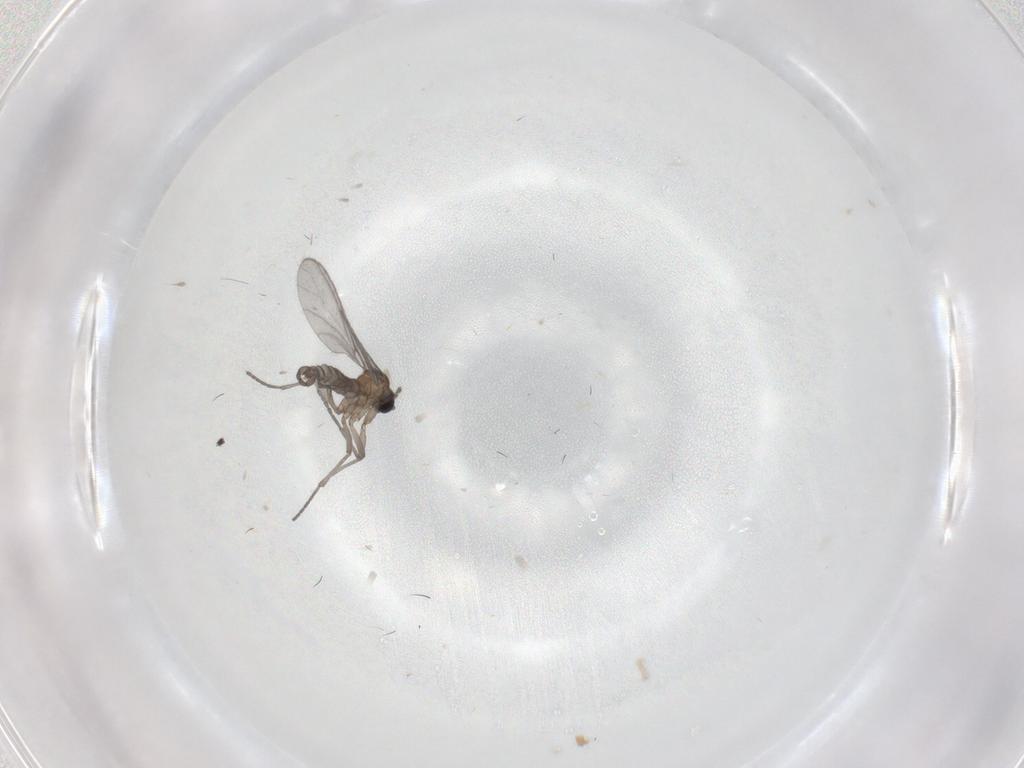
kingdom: Animalia
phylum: Arthropoda
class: Insecta
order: Diptera
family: Sciaridae
